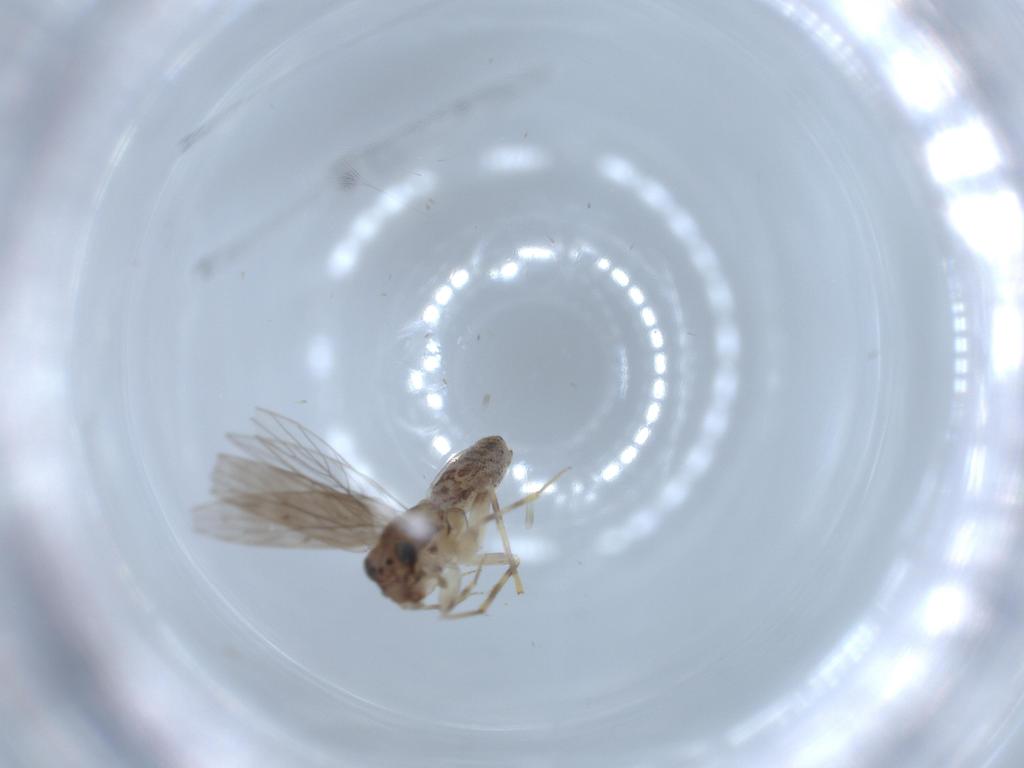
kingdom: Animalia
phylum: Arthropoda
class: Insecta
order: Psocodea
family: Lepidopsocidae
